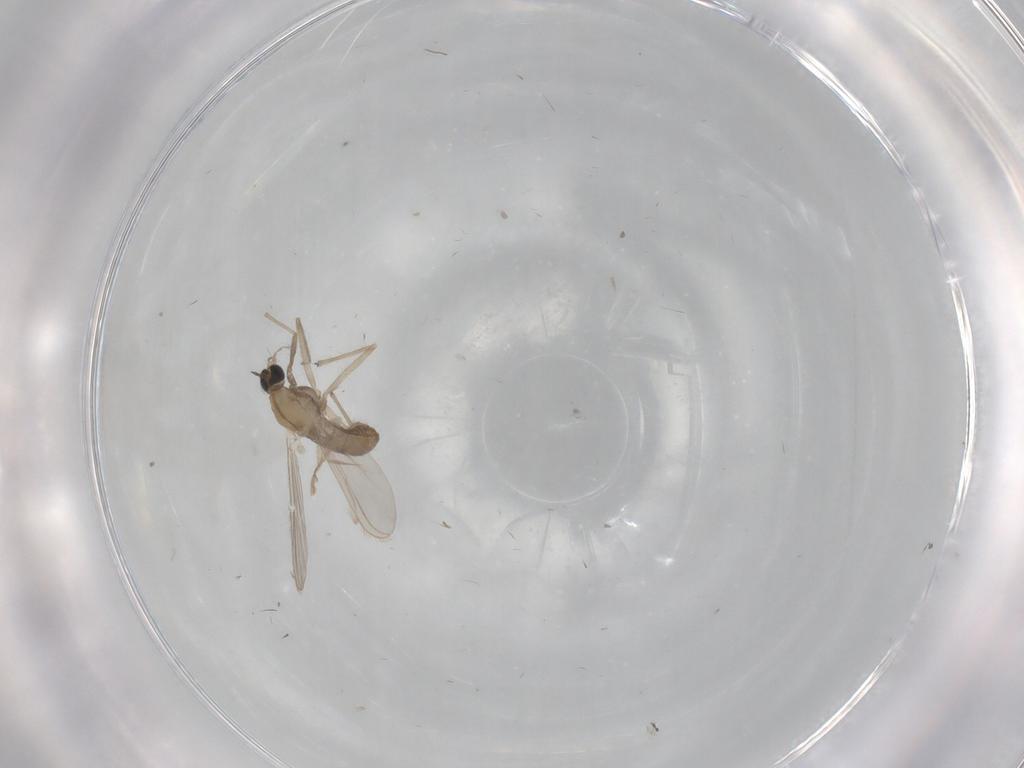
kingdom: Animalia
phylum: Arthropoda
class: Insecta
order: Diptera
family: Chironomidae
